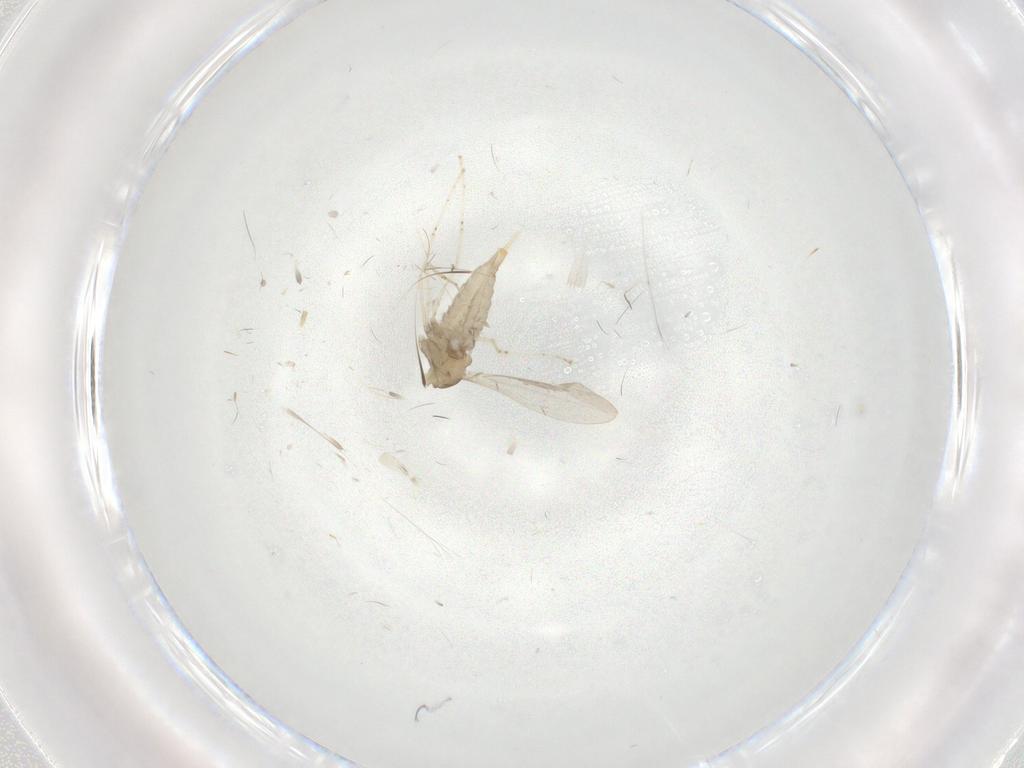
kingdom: Animalia
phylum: Arthropoda
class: Insecta
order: Diptera
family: Cecidomyiidae
